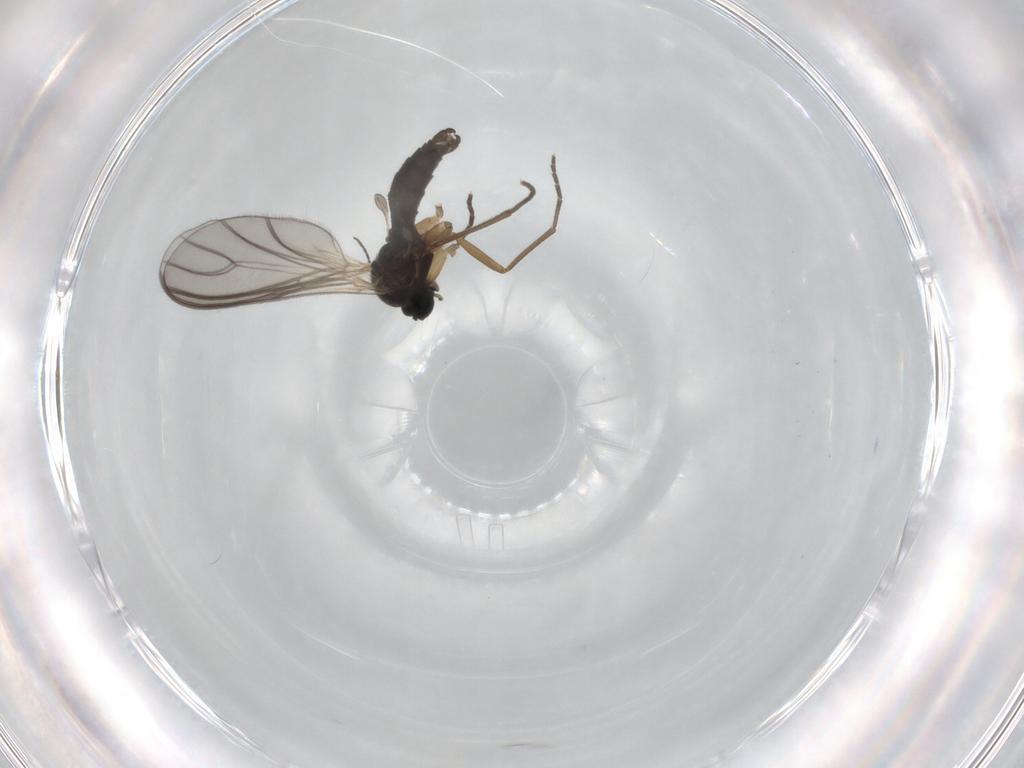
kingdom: Animalia
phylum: Arthropoda
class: Insecta
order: Diptera
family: Sciaridae
